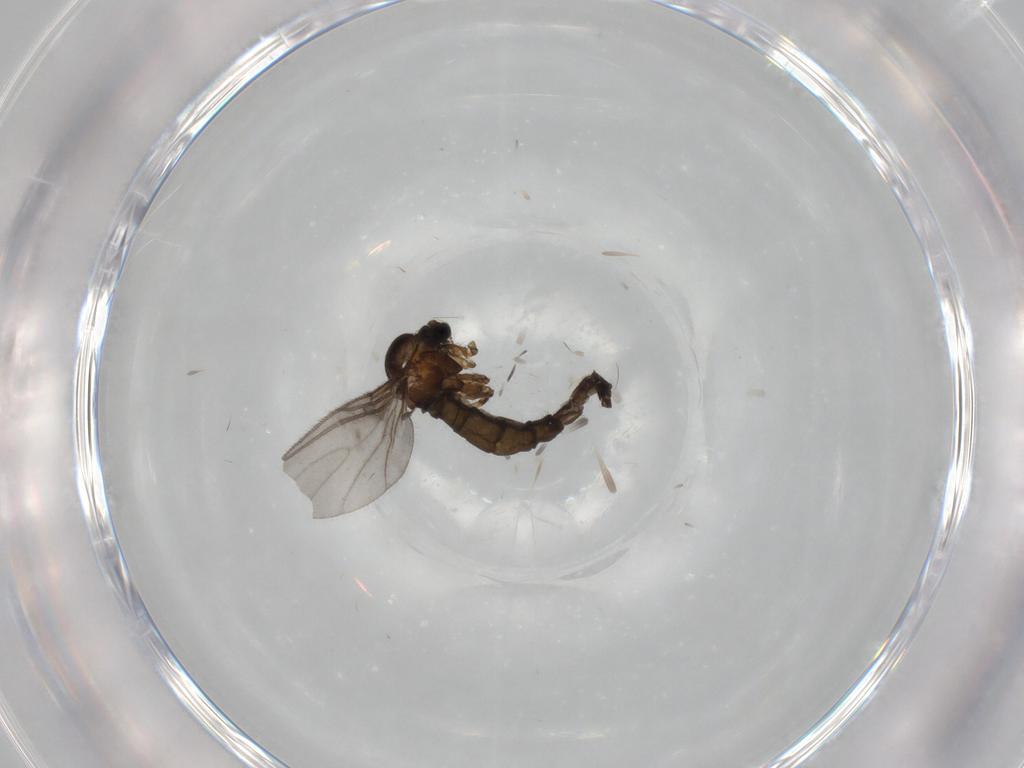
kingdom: Animalia
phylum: Arthropoda
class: Insecta
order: Diptera
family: Sciaridae
